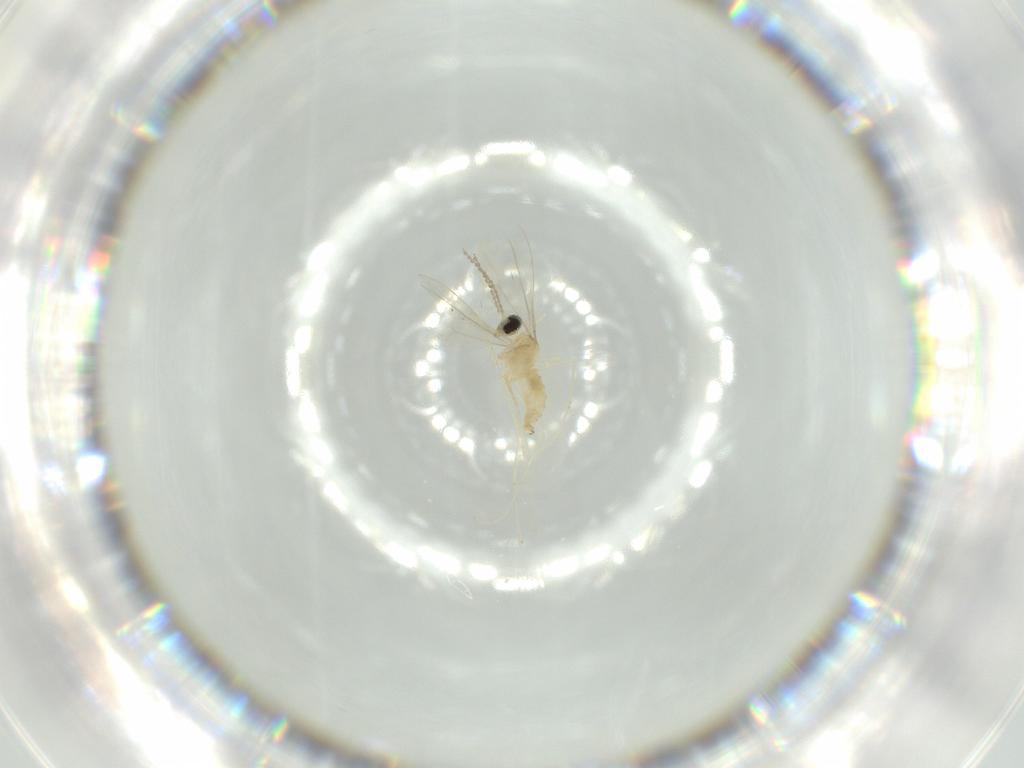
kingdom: Animalia
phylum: Arthropoda
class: Insecta
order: Diptera
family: Cecidomyiidae
